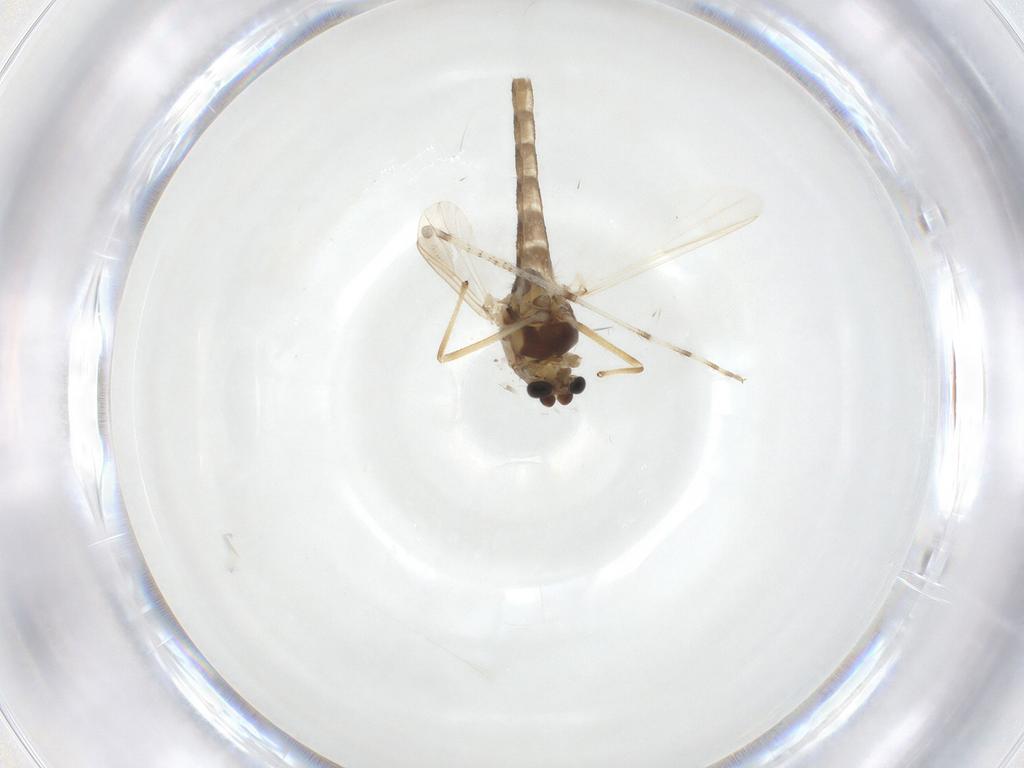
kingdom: Animalia
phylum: Arthropoda
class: Insecta
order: Diptera
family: Chironomidae
